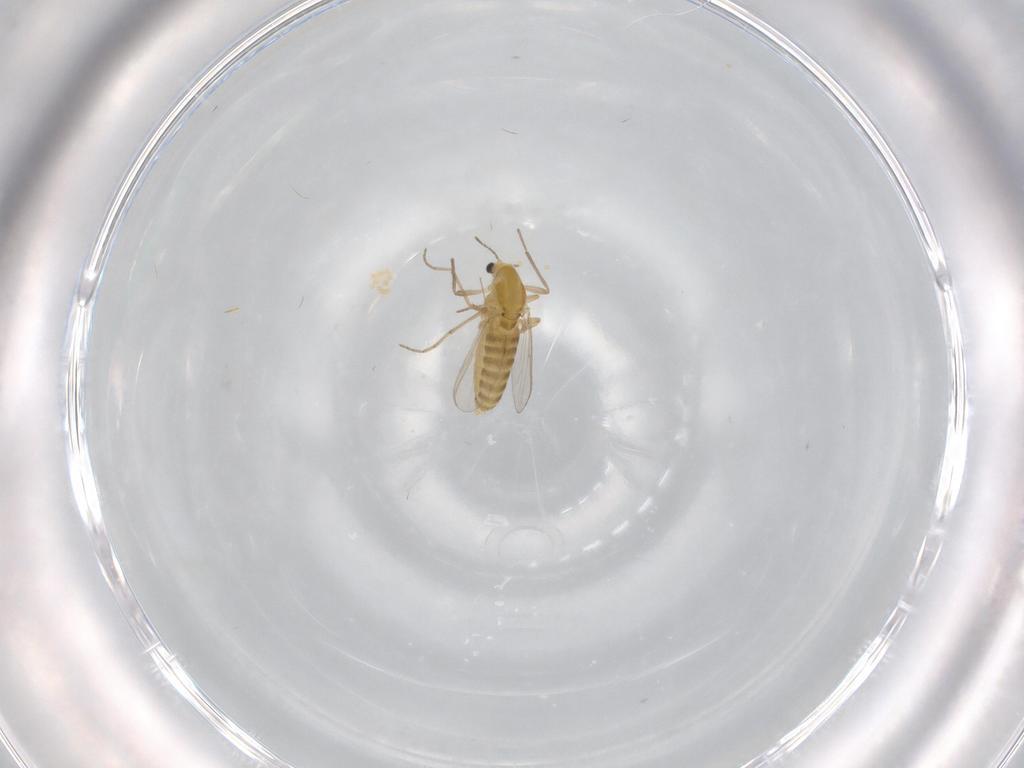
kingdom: Animalia
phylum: Arthropoda
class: Insecta
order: Diptera
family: Chironomidae
